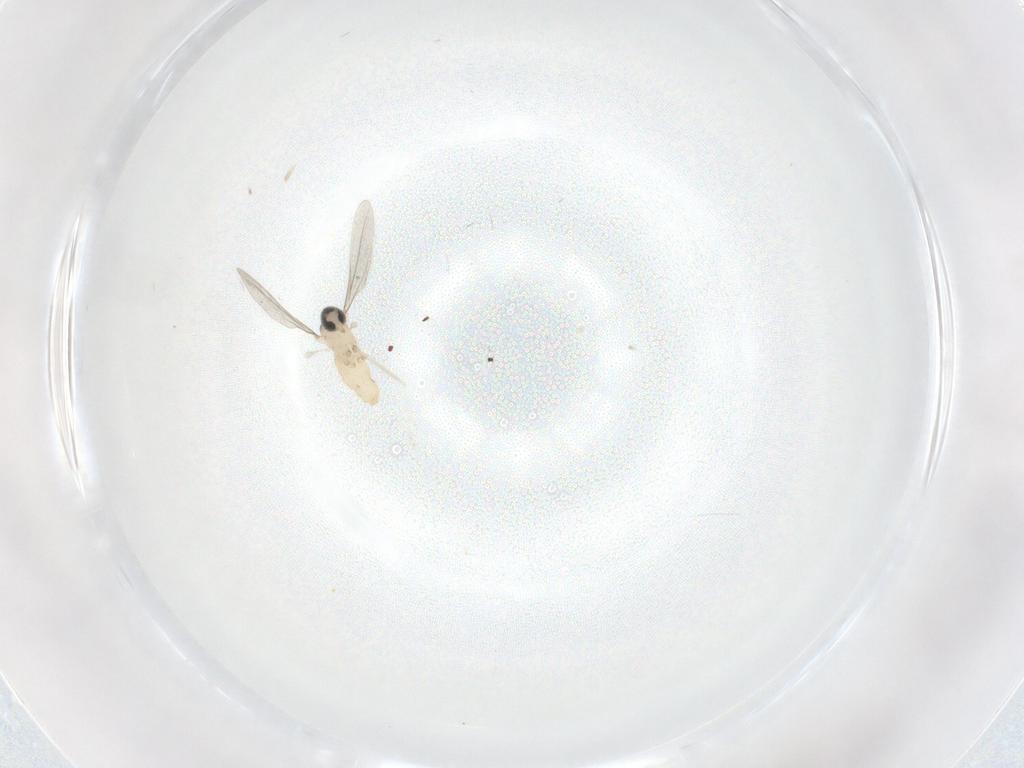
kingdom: Animalia
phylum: Arthropoda
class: Insecta
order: Diptera
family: Cecidomyiidae
